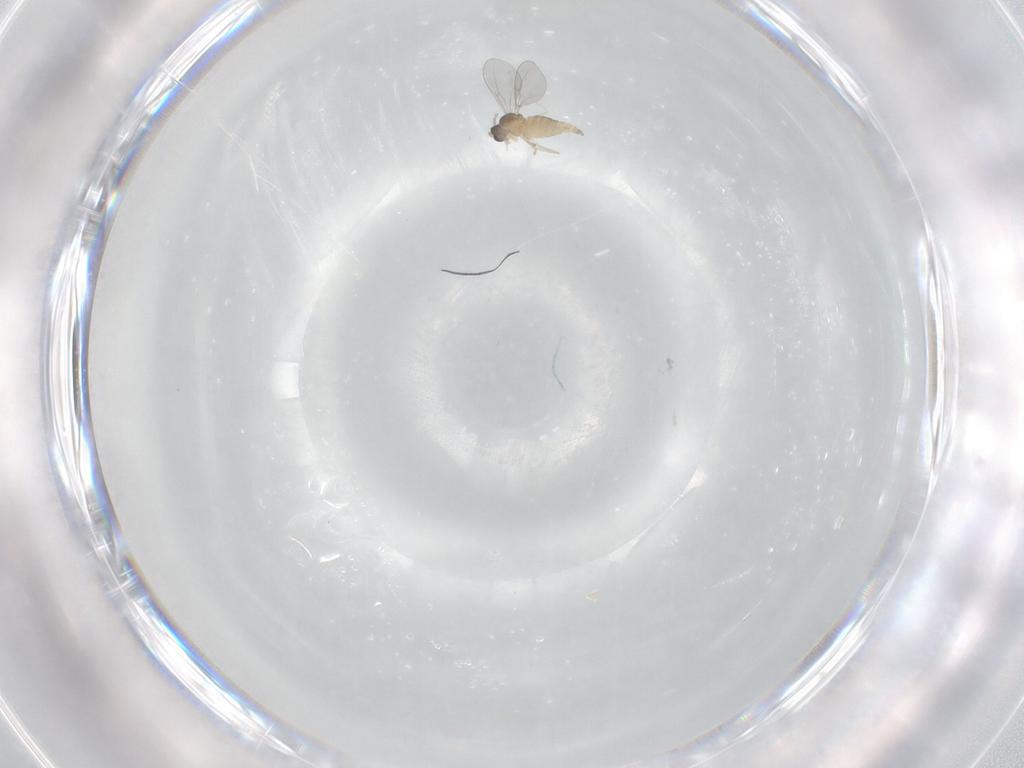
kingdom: Animalia
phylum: Arthropoda
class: Insecta
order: Diptera
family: Cecidomyiidae
